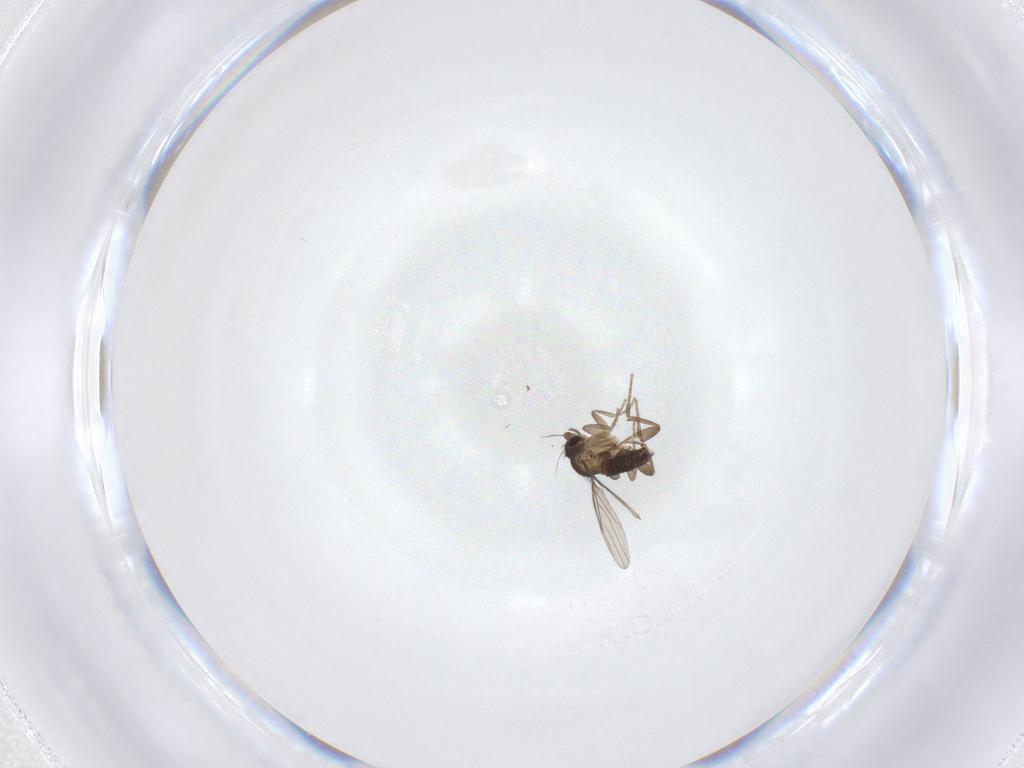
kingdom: Animalia
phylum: Arthropoda
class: Insecta
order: Diptera
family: Phoridae
